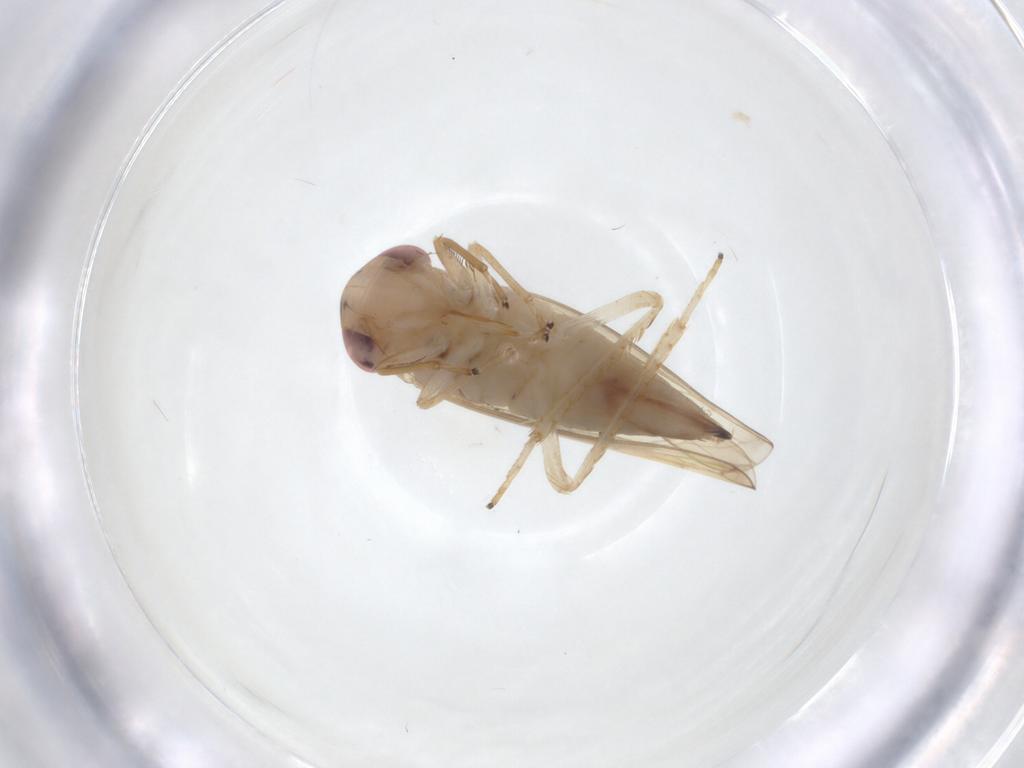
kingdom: Animalia
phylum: Arthropoda
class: Insecta
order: Hemiptera
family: Cicadellidae
